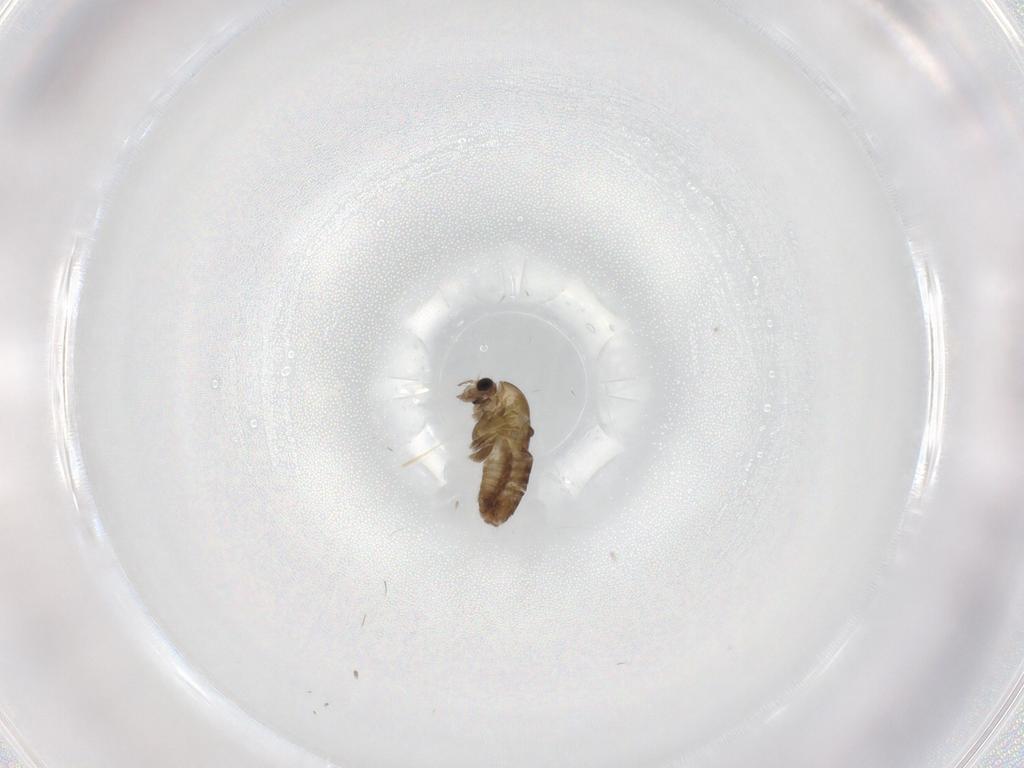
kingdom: Animalia
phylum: Arthropoda
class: Insecta
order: Diptera
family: Chironomidae
